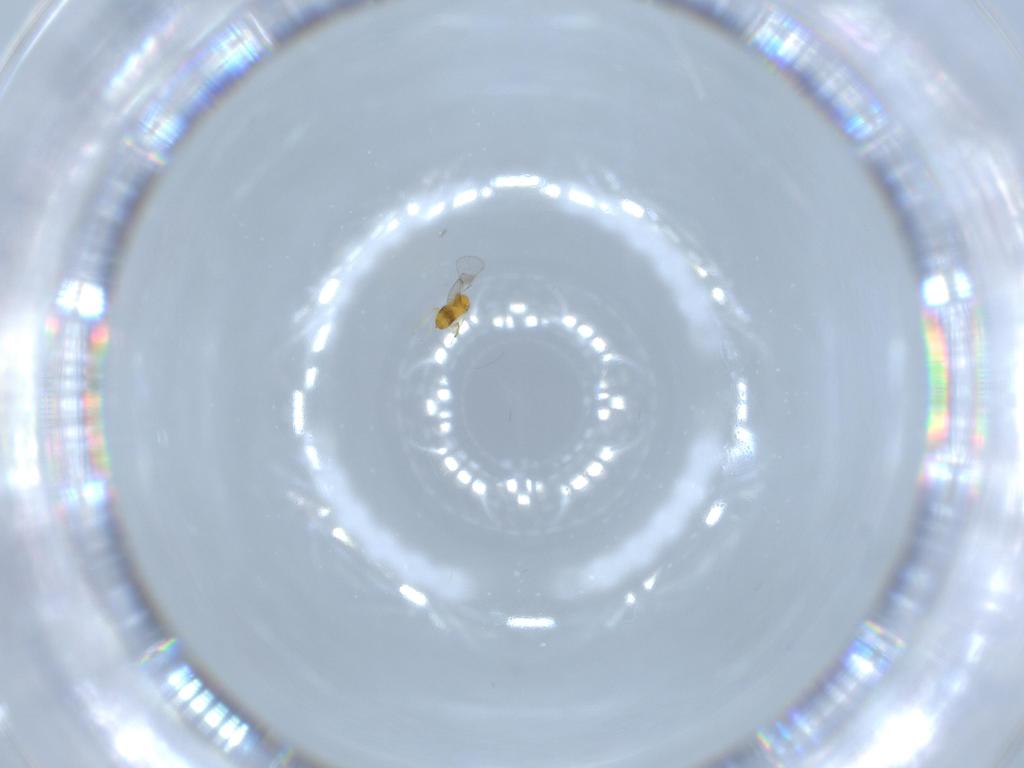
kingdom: Animalia
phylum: Arthropoda
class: Insecta
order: Hymenoptera
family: Trichogrammatidae
